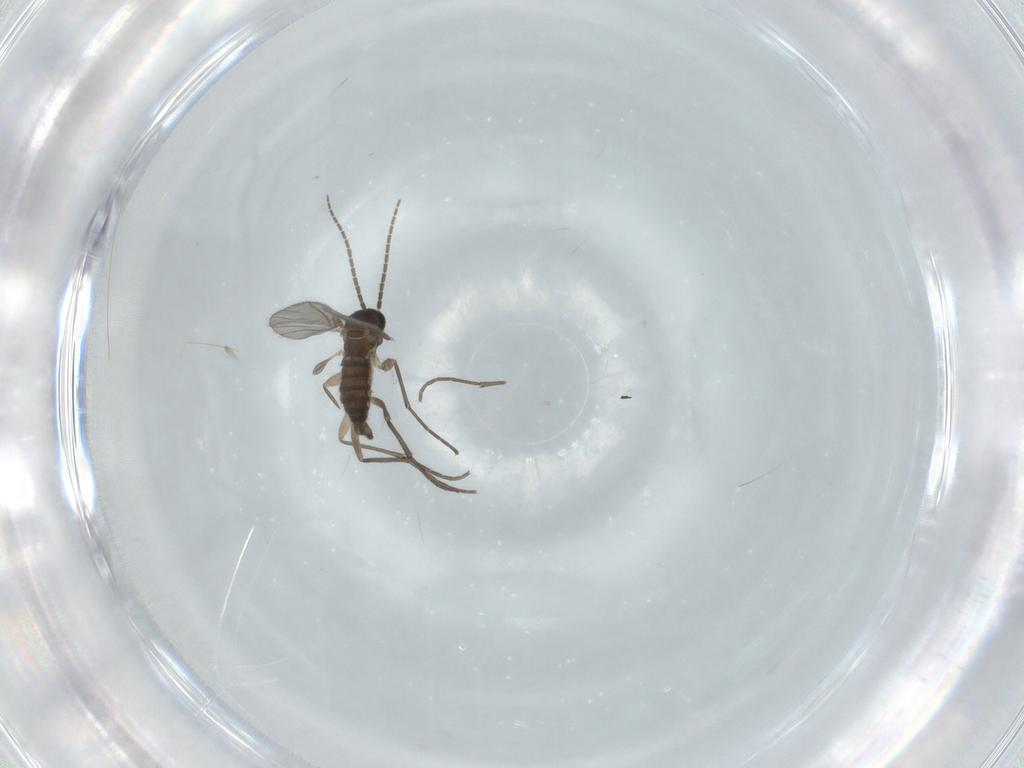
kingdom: Animalia
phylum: Arthropoda
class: Insecta
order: Diptera
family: Sciaridae
